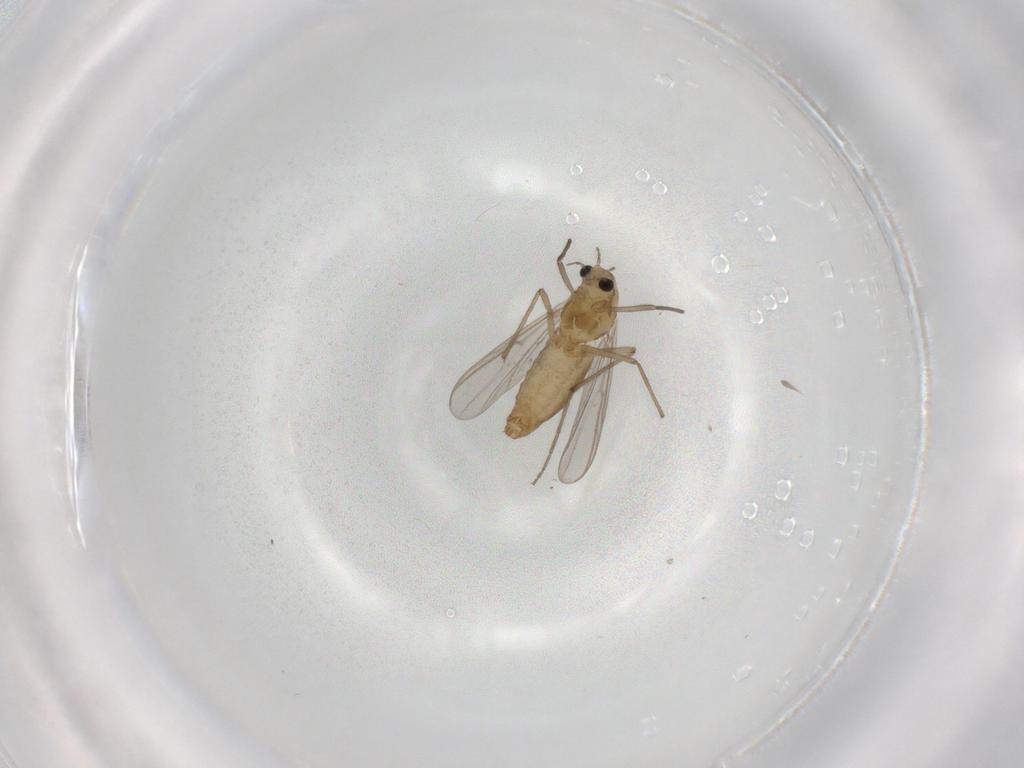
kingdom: Animalia
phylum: Arthropoda
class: Insecta
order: Diptera
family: Chironomidae
